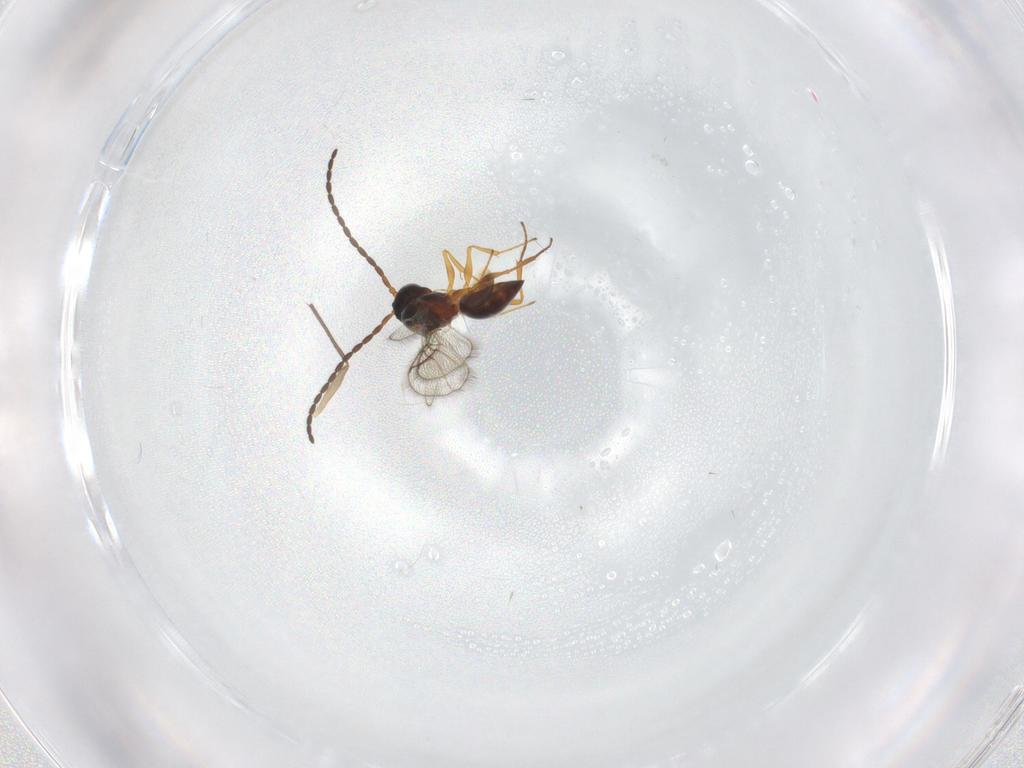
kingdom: Animalia
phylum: Arthropoda
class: Insecta
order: Hymenoptera
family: Figitidae
